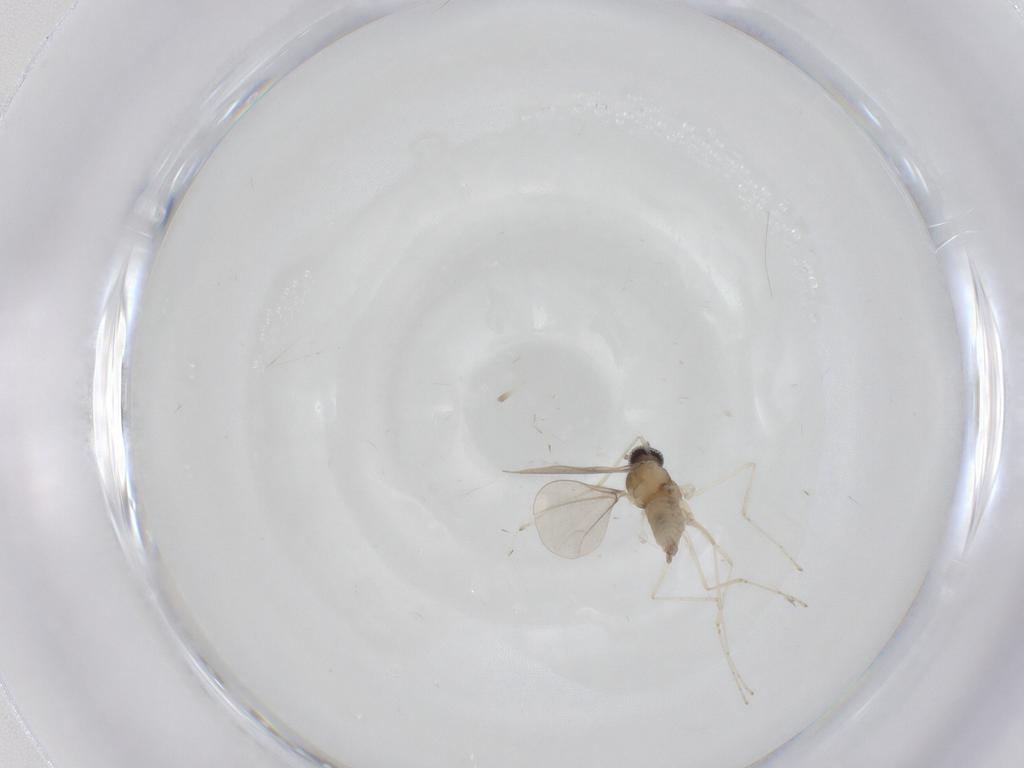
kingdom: Animalia
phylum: Arthropoda
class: Insecta
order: Diptera
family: Cecidomyiidae
